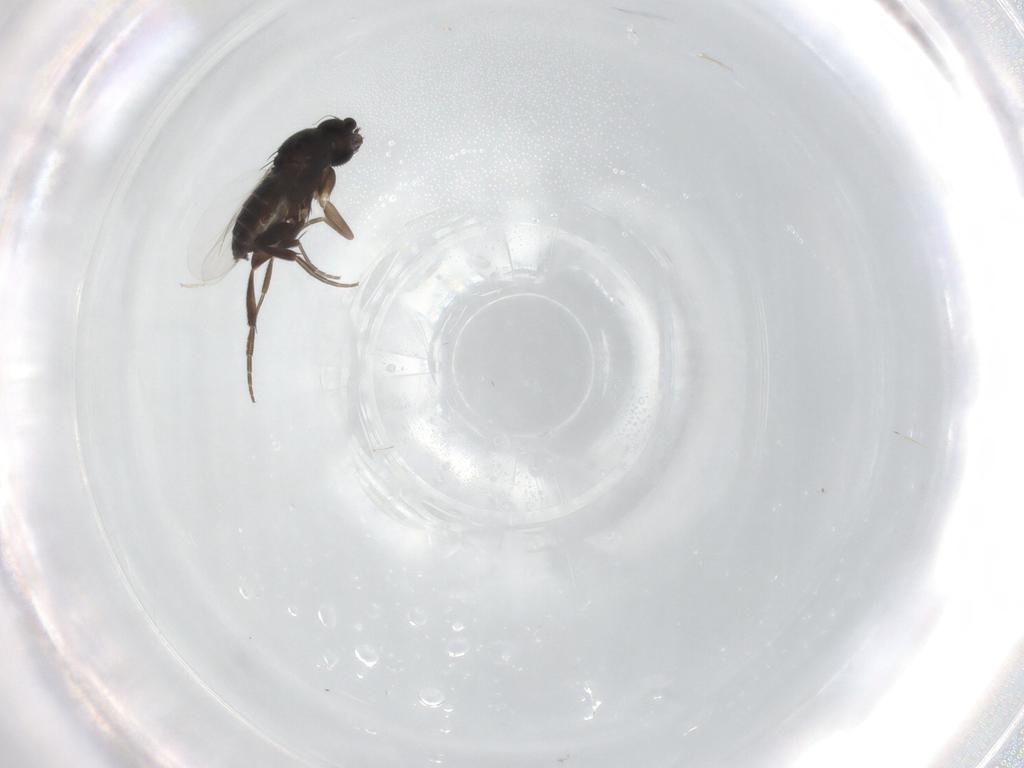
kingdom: Animalia
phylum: Arthropoda
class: Insecta
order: Diptera
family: Phoridae
